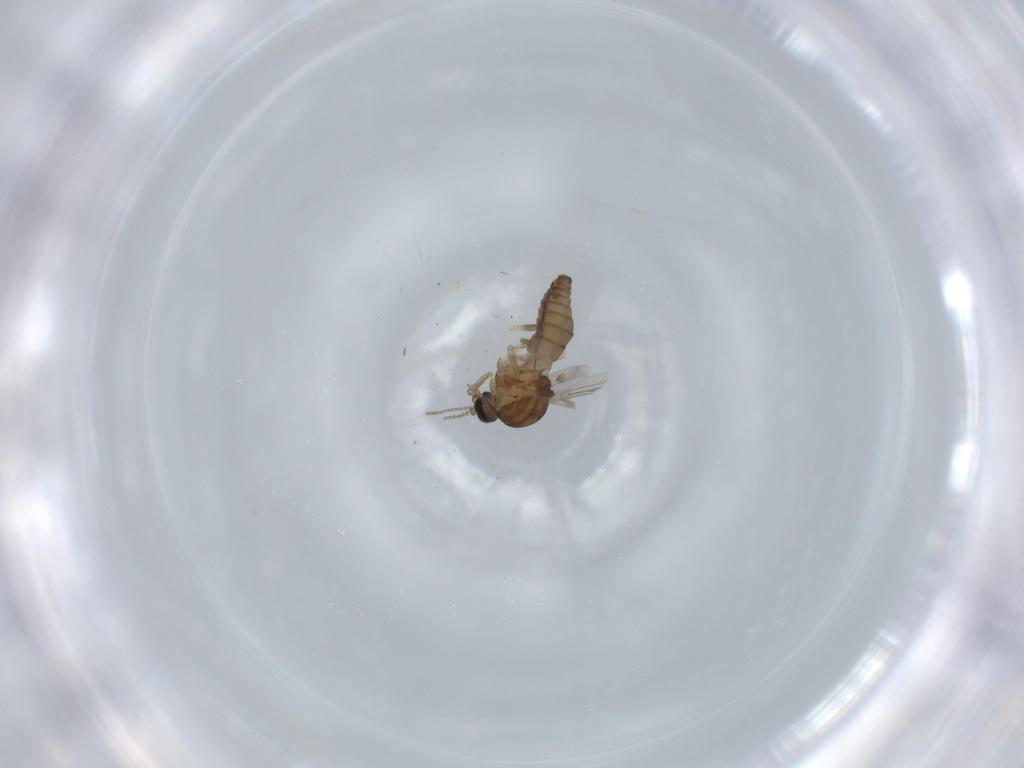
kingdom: Animalia
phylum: Arthropoda
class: Insecta
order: Diptera
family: Ceratopogonidae
